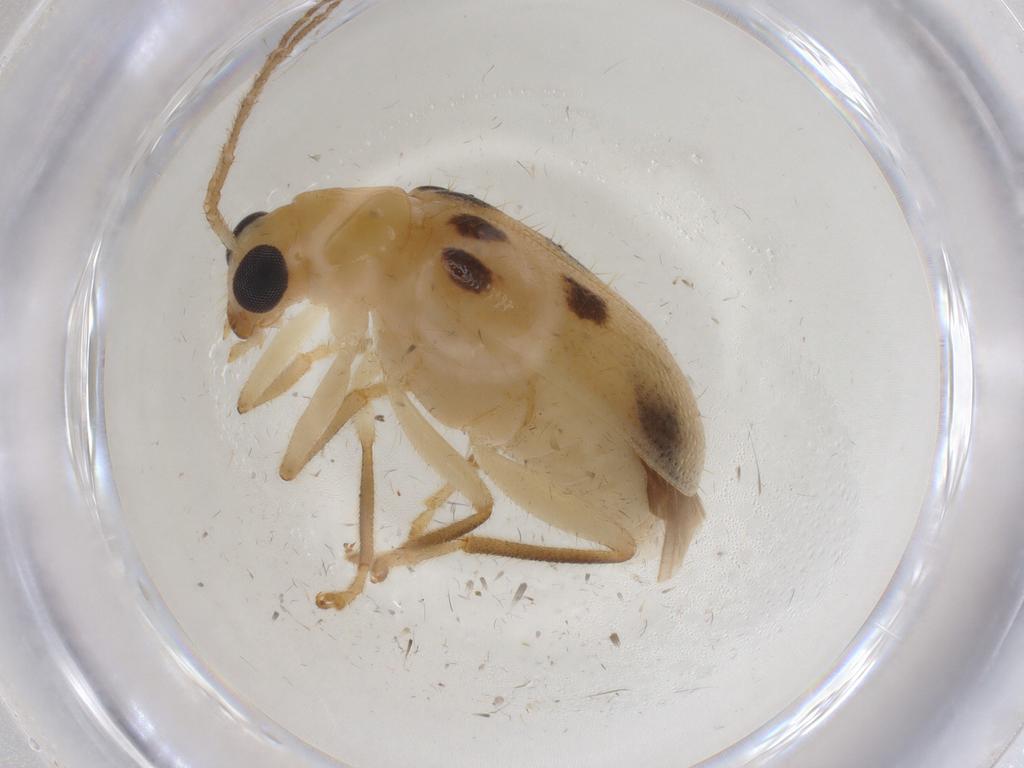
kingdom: Animalia
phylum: Arthropoda
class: Insecta
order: Coleoptera
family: Chrysomelidae
